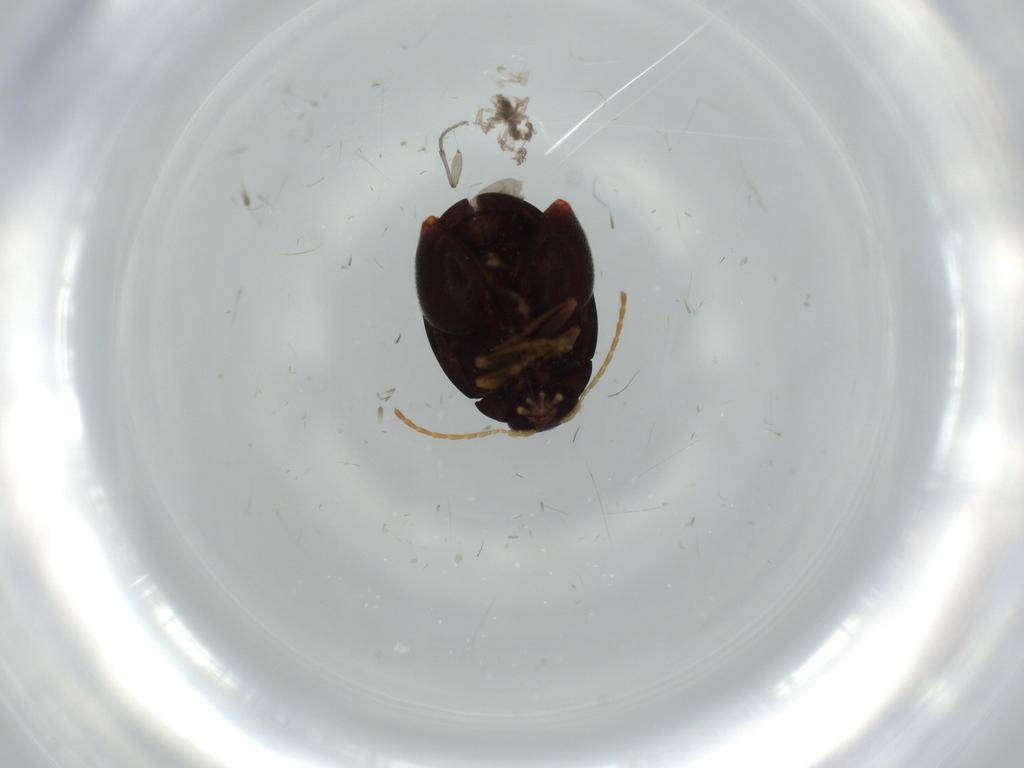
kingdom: Animalia
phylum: Arthropoda
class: Insecta
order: Coleoptera
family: Chrysomelidae
